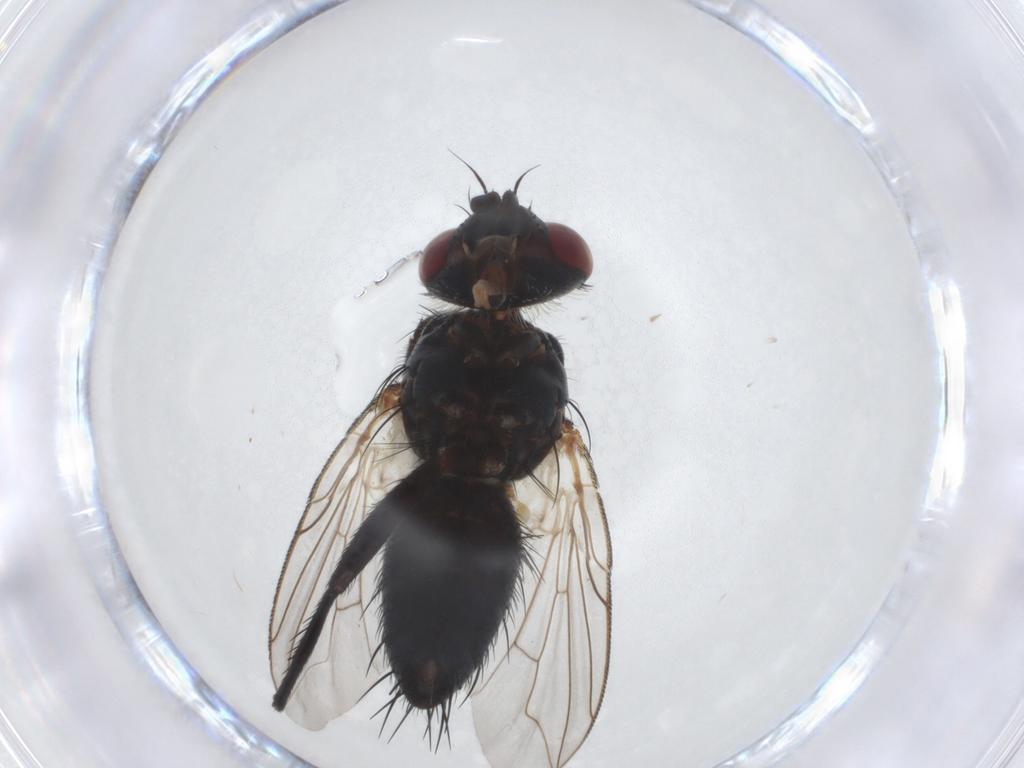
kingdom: Animalia
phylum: Arthropoda
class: Insecta
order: Diptera
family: Tachinidae
